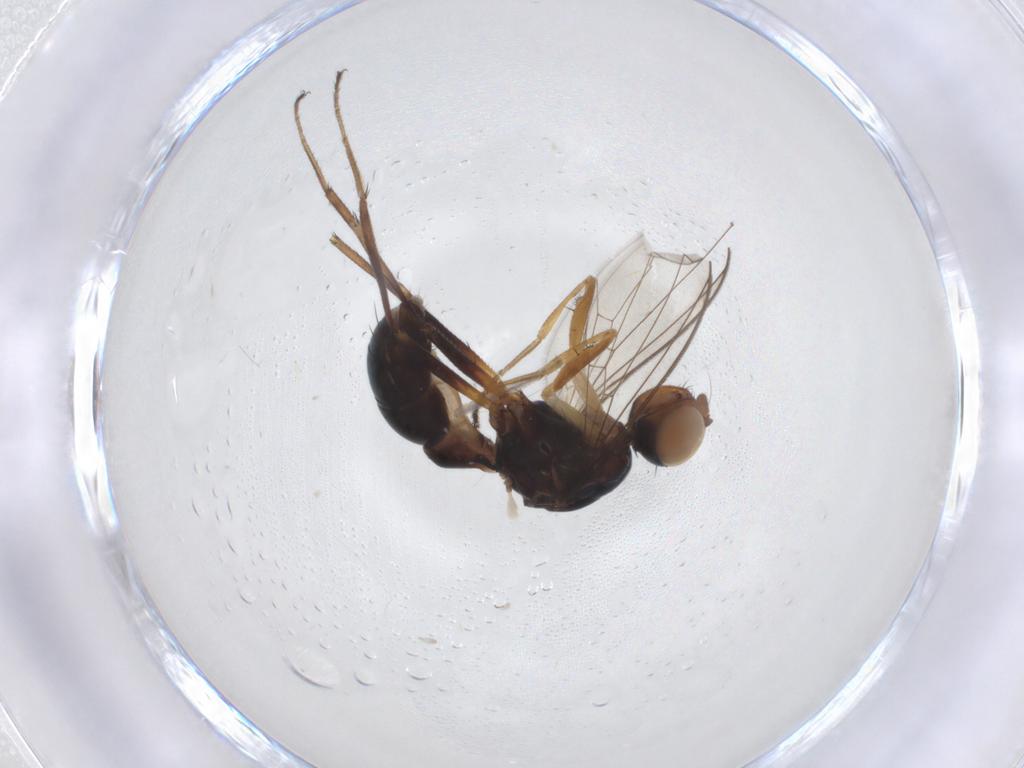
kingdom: Animalia
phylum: Arthropoda
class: Insecta
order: Diptera
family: Sepsidae
